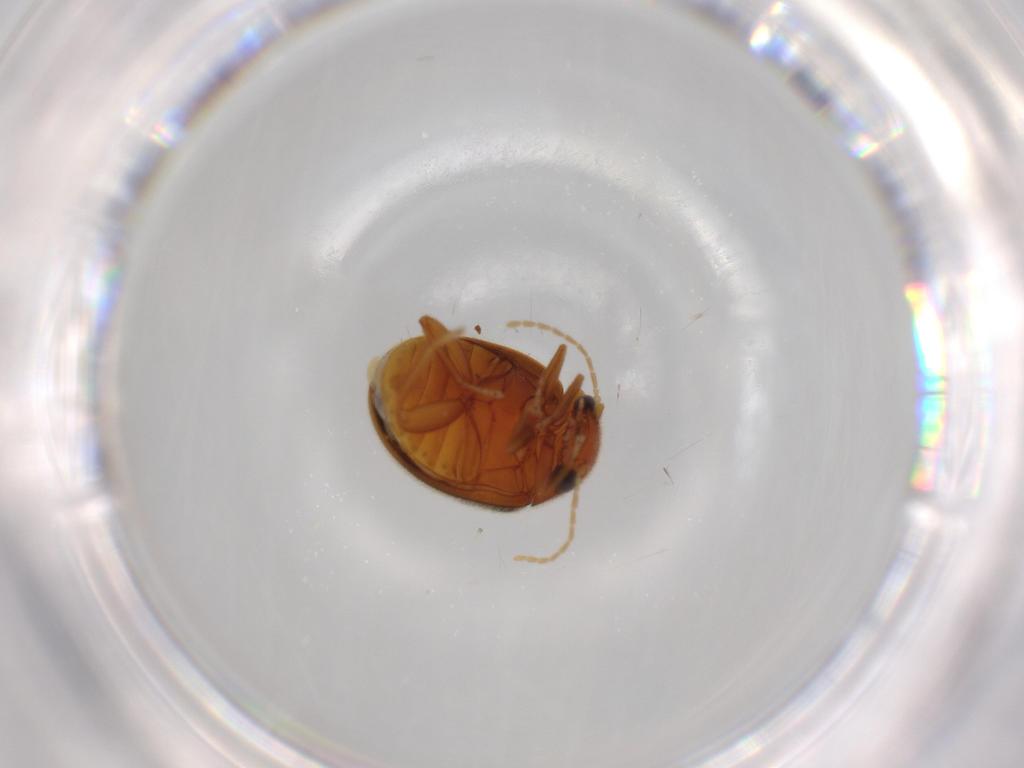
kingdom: Animalia
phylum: Arthropoda
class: Insecta
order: Coleoptera
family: Scirtidae
